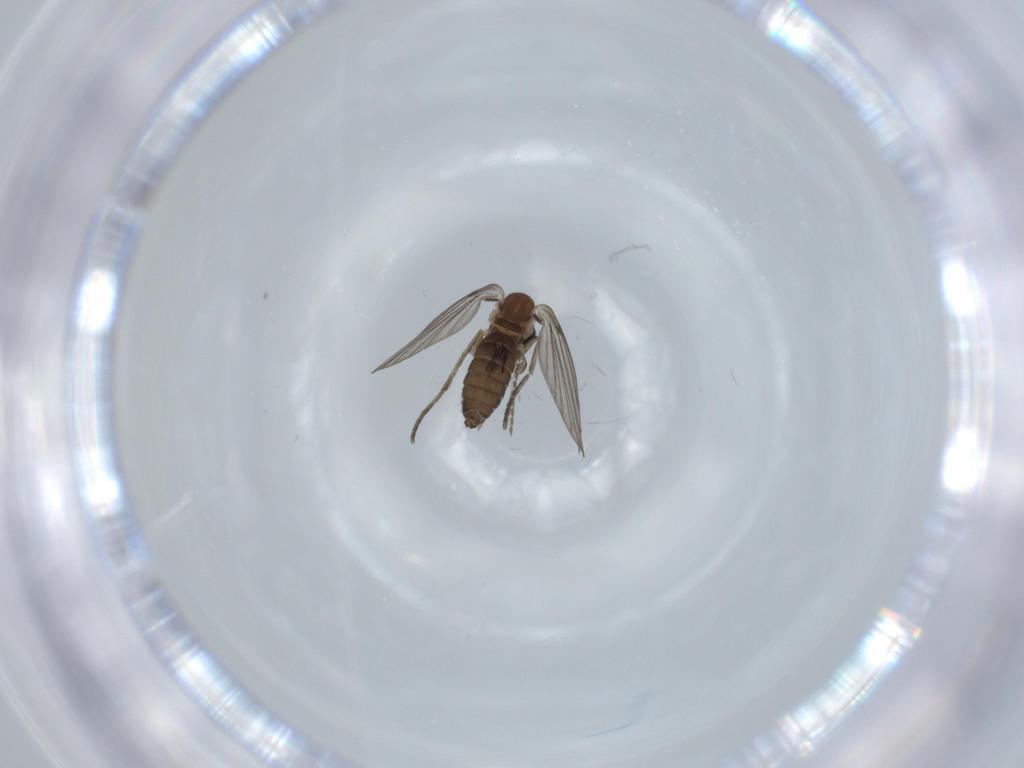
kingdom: Animalia
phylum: Arthropoda
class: Insecta
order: Diptera
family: Psychodidae
